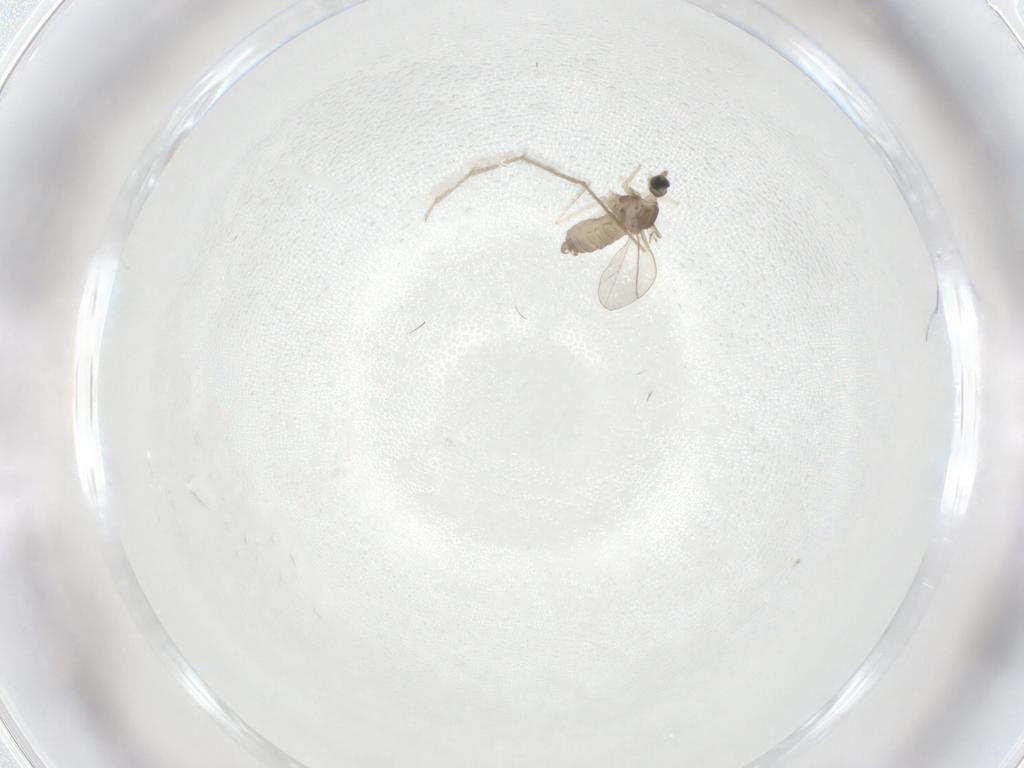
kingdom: Animalia
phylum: Arthropoda
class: Insecta
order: Diptera
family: Cecidomyiidae
